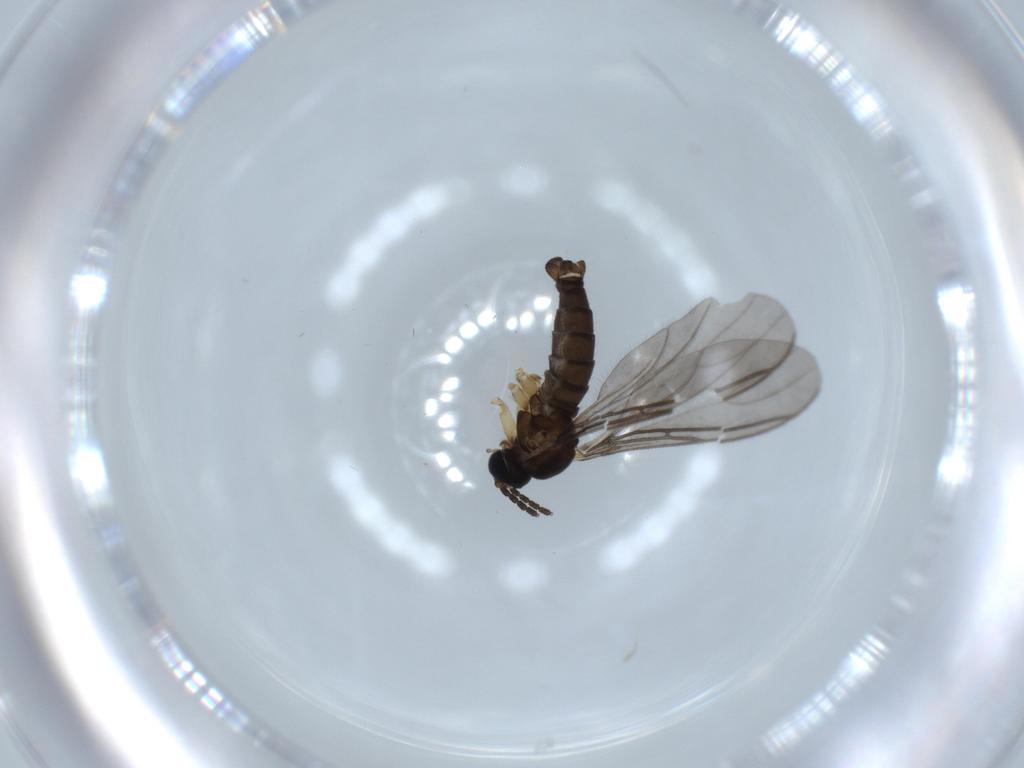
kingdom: Animalia
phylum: Arthropoda
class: Insecta
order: Diptera
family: Sciaridae
